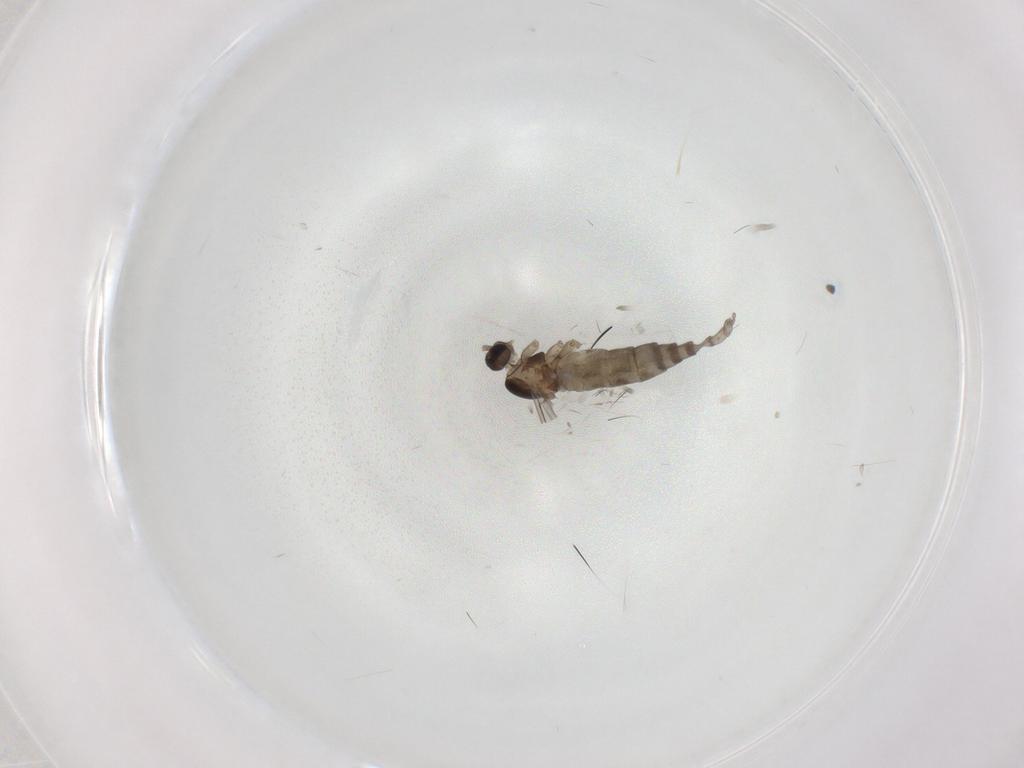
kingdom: Animalia
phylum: Arthropoda
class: Insecta
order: Diptera
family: Cecidomyiidae
